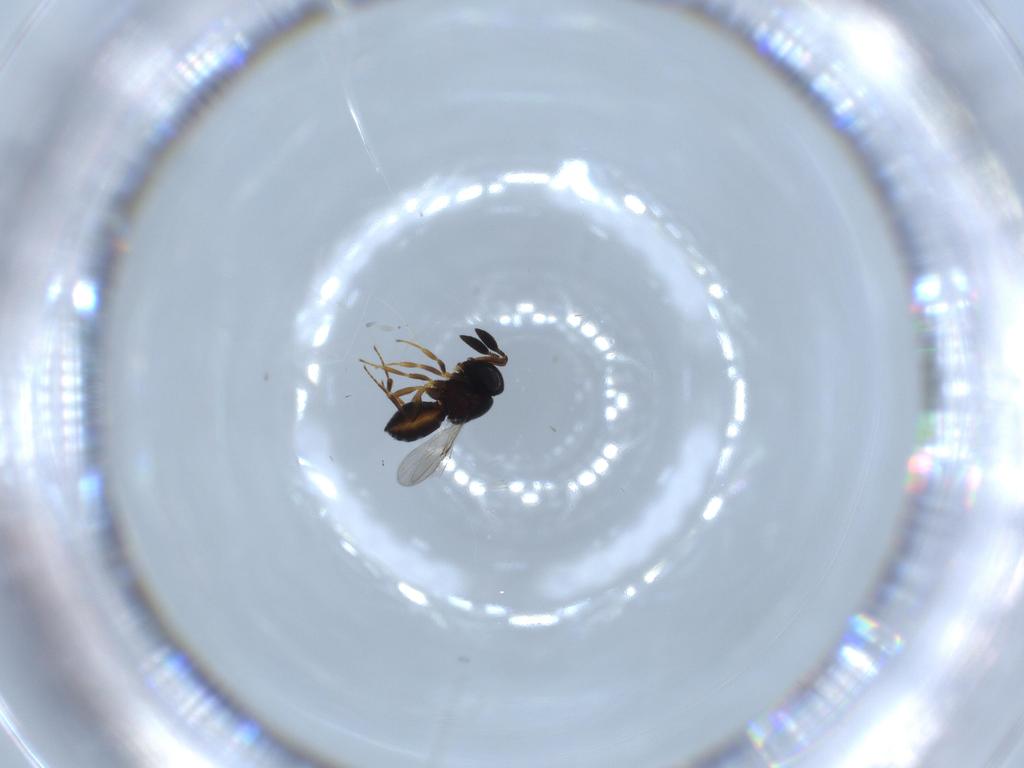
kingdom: Animalia
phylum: Arthropoda
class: Insecta
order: Hymenoptera
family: Scelionidae
